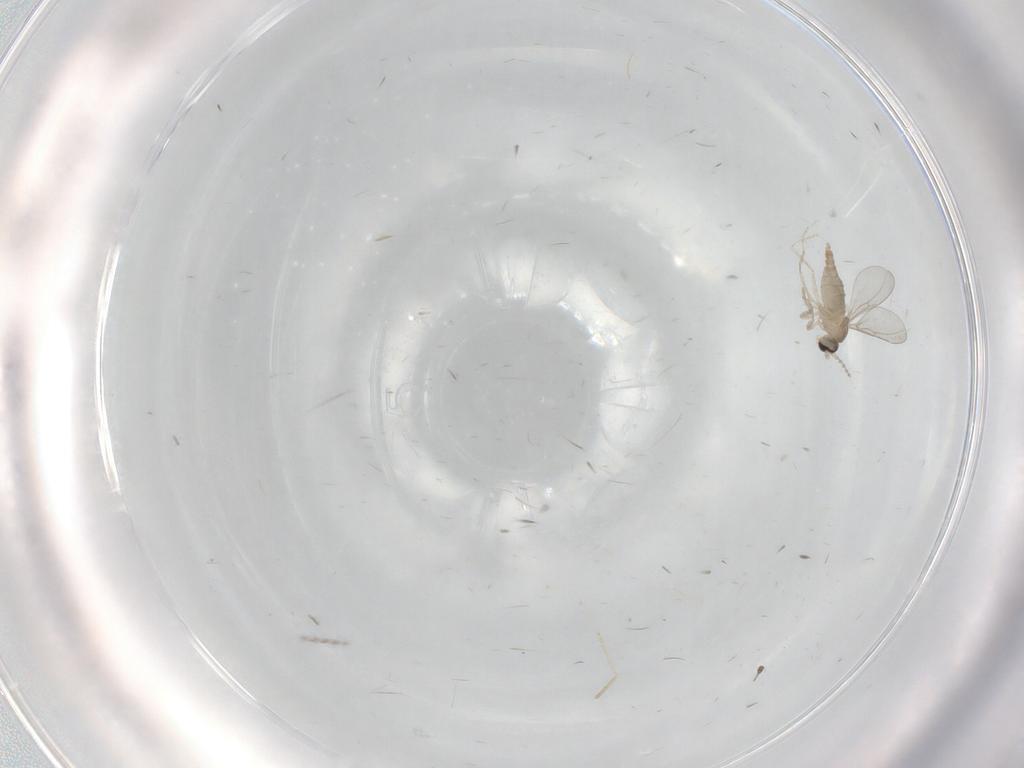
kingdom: Animalia
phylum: Arthropoda
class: Insecta
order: Diptera
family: Cecidomyiidae
